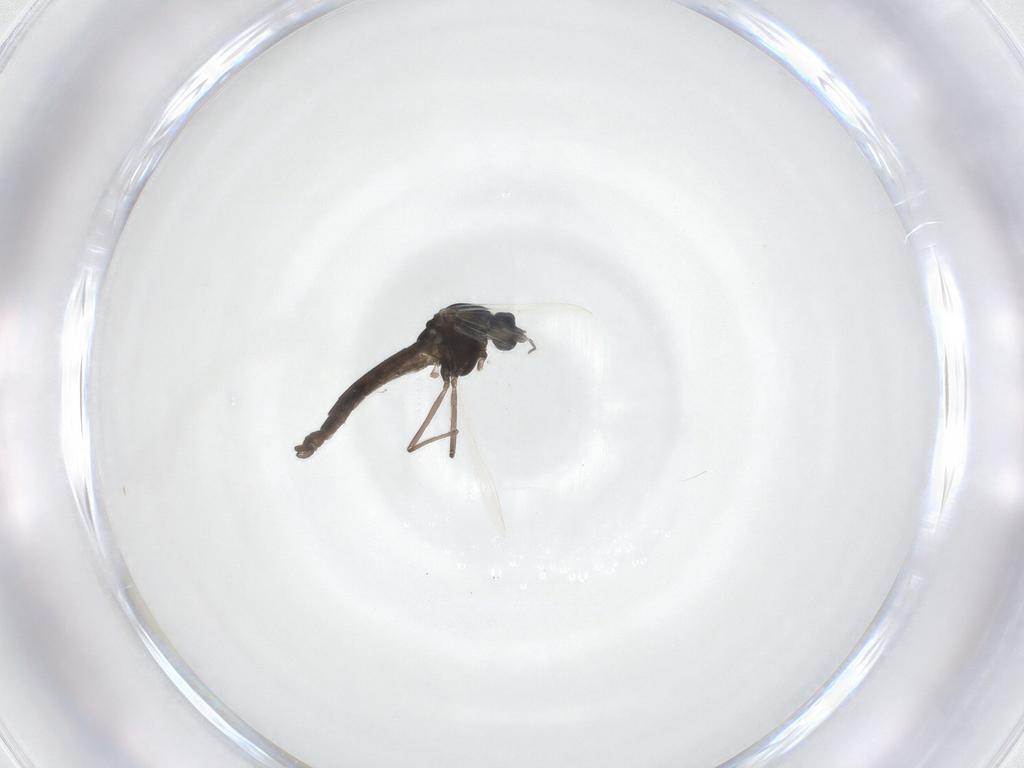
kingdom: Animalia
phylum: Arthropoda
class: Insecta
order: Diptera
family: Chironomidae
